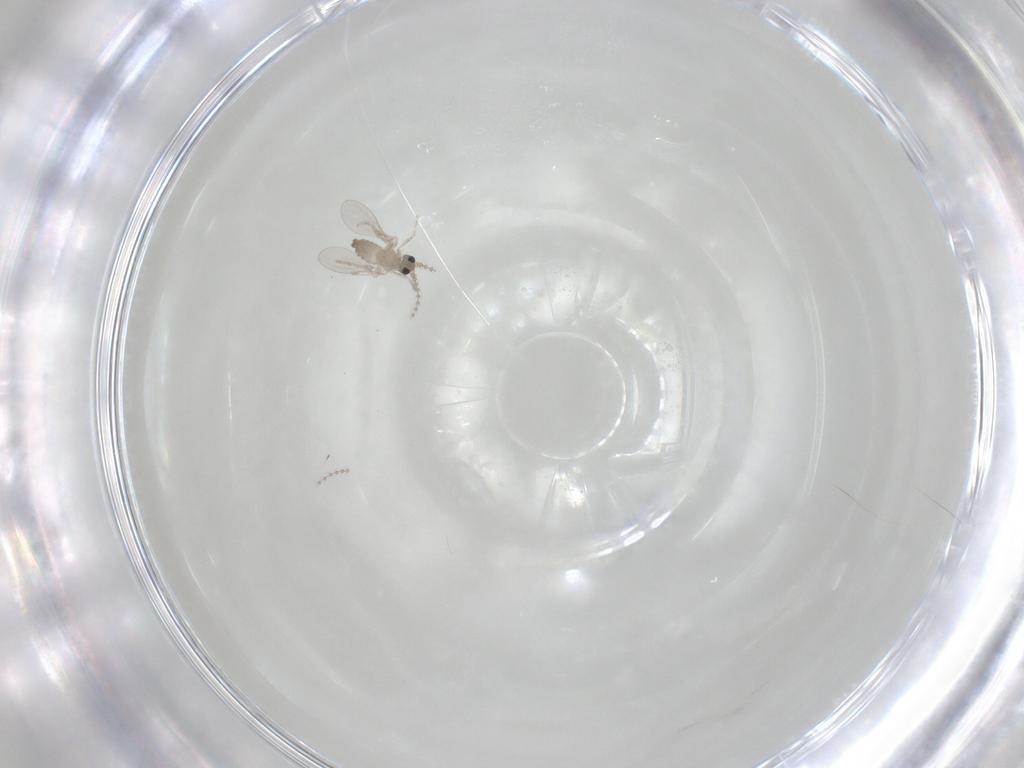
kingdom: Animalia
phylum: Arthropoda
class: Insecta
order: Diptera
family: Cecidomyiidae
